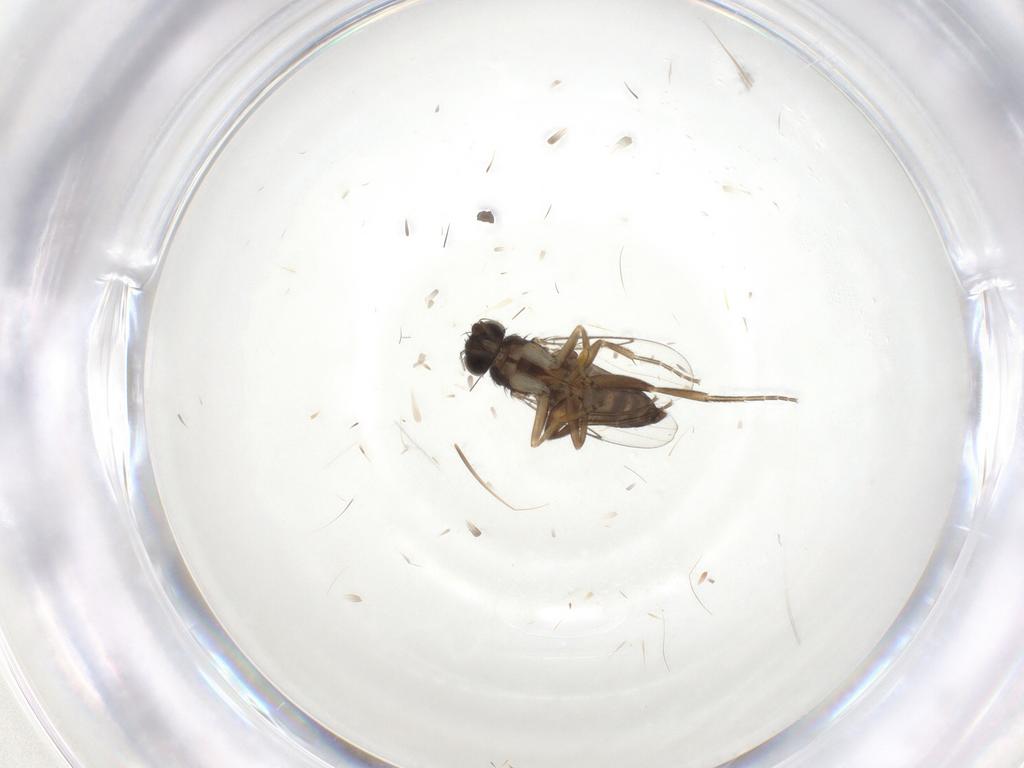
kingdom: Animalia
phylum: Arthropoda
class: Insecta
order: Diptera
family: Phoridae
